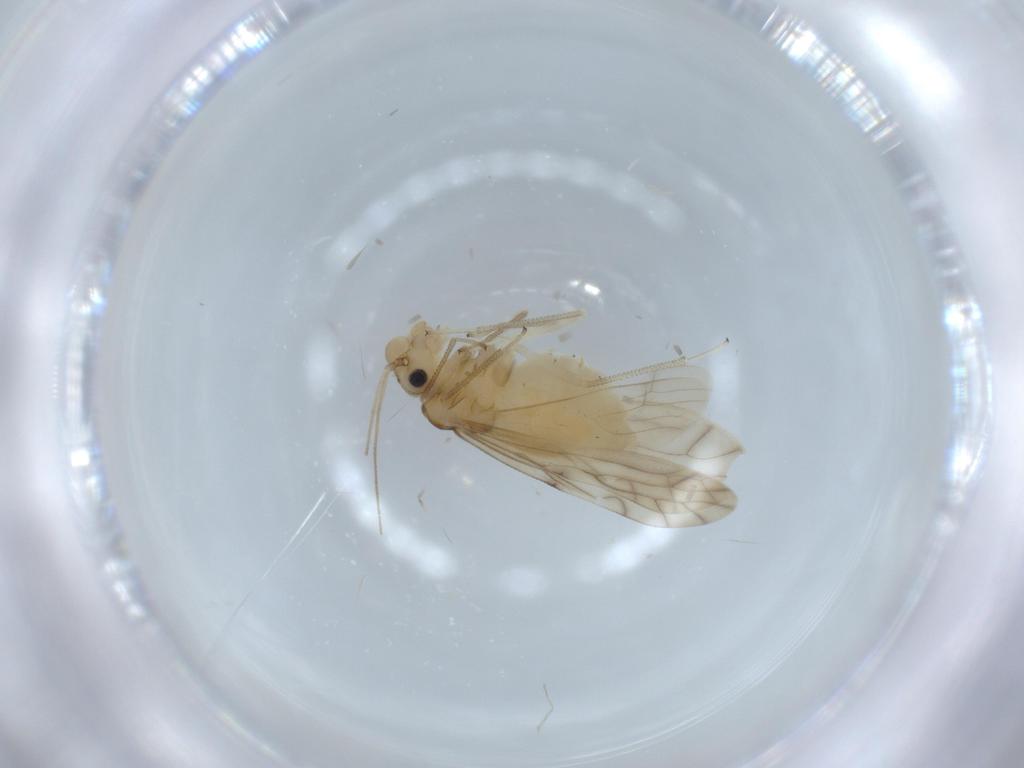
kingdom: Animalia
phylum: Arthropoda
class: Insecta
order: Psocodea
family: Caeciliusidae
